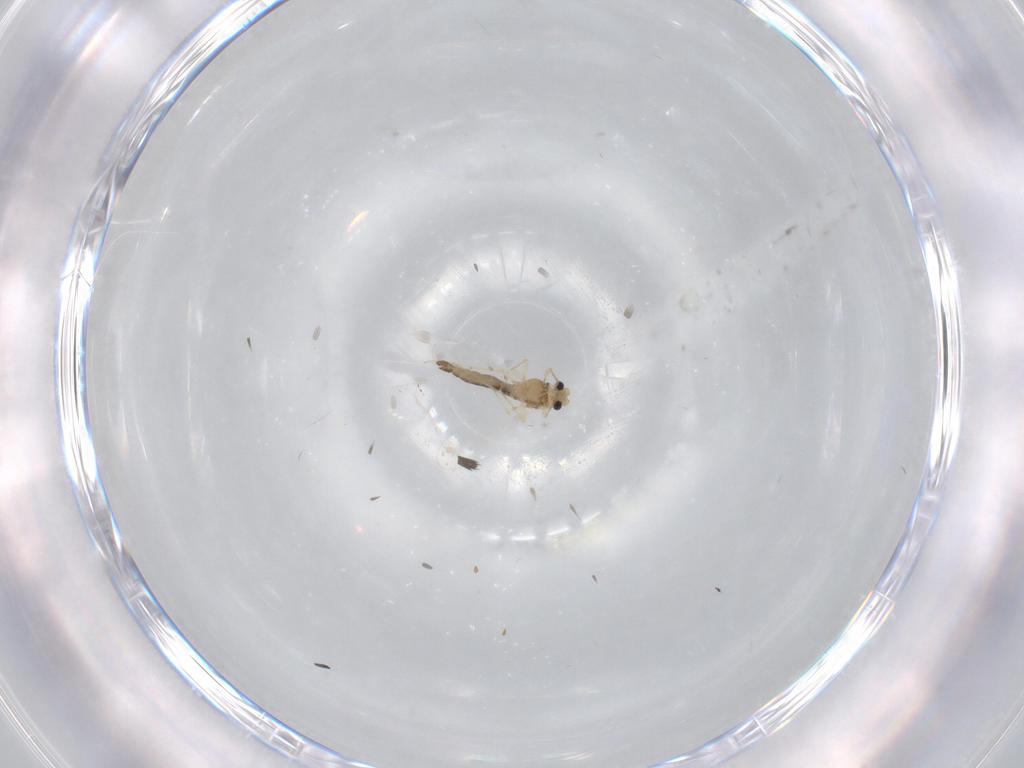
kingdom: Animalia
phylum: Arthropoda
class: Insecta
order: Diptera
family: Chironomidae
